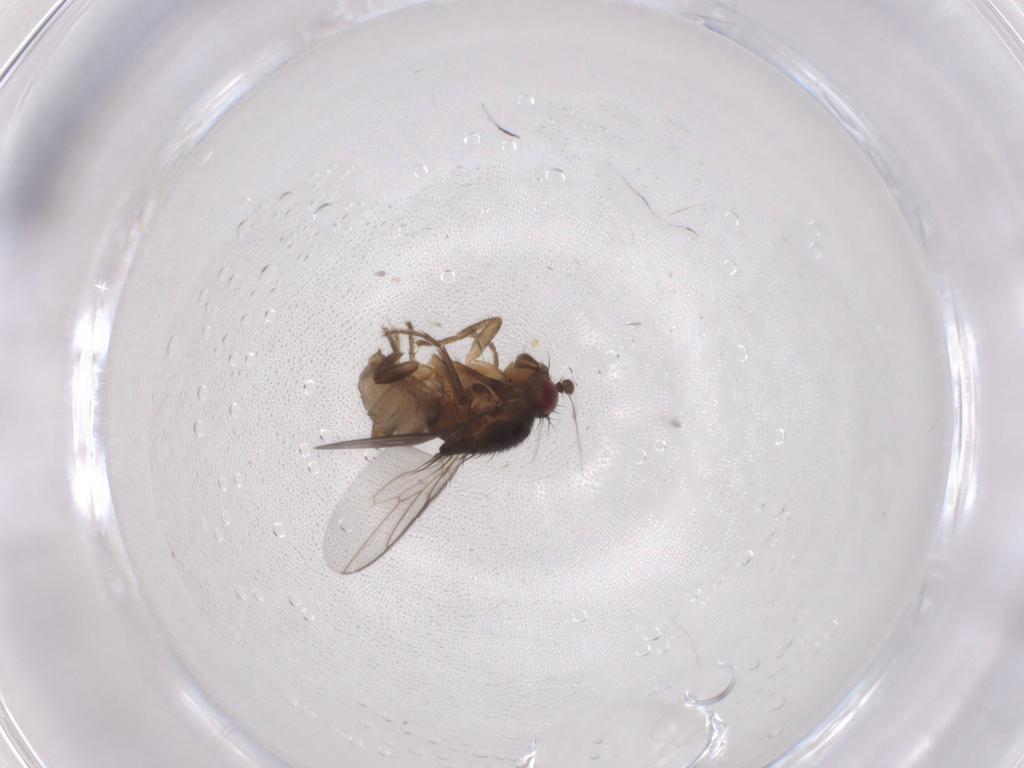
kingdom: Animalia
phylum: Arthropoda
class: Insecta
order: Diptera
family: Sphaeroceridae
